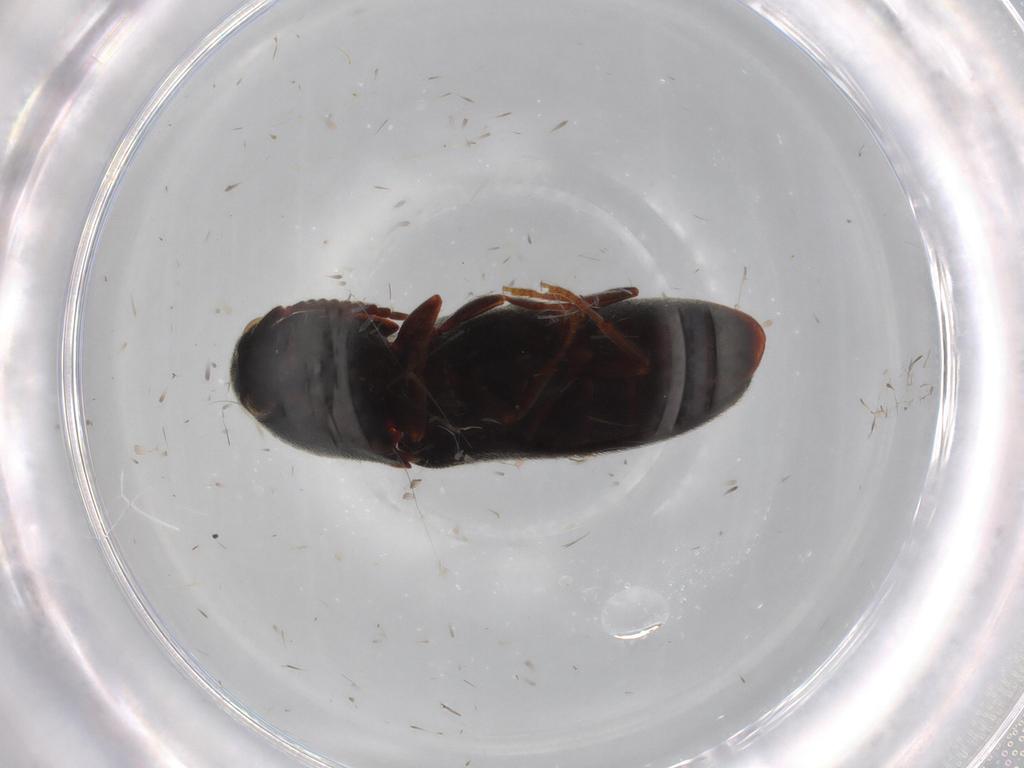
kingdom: Animalia
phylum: Arthropoda
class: Insecta
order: Coleoptera
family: Eucnemidae
